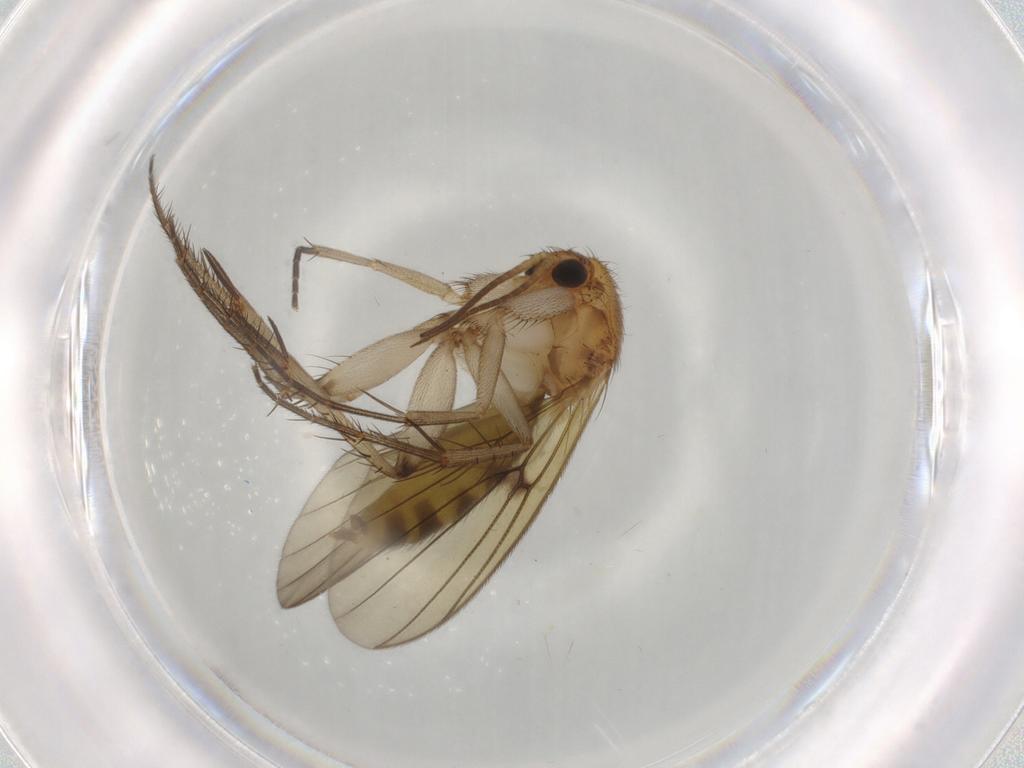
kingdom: Animalia
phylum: Arthropoda
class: Insecta
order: Diptera
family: Mycetophilidae
